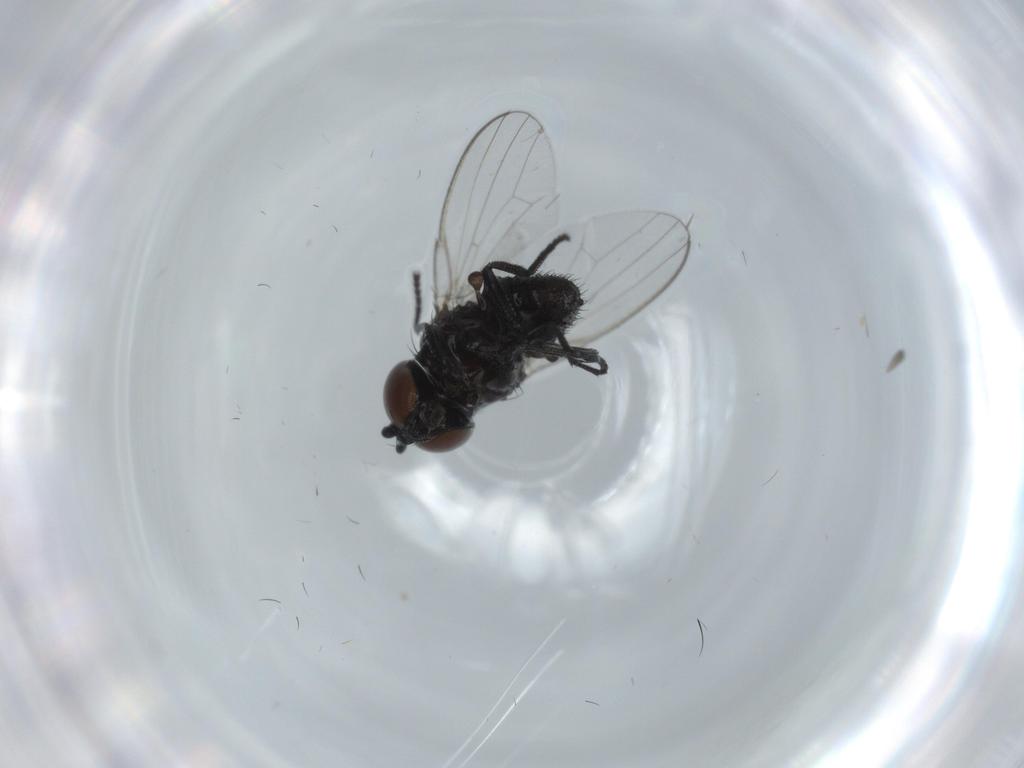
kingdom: Animalia
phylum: Arthropoda
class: Insecta
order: Diptera
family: Milichiidae
